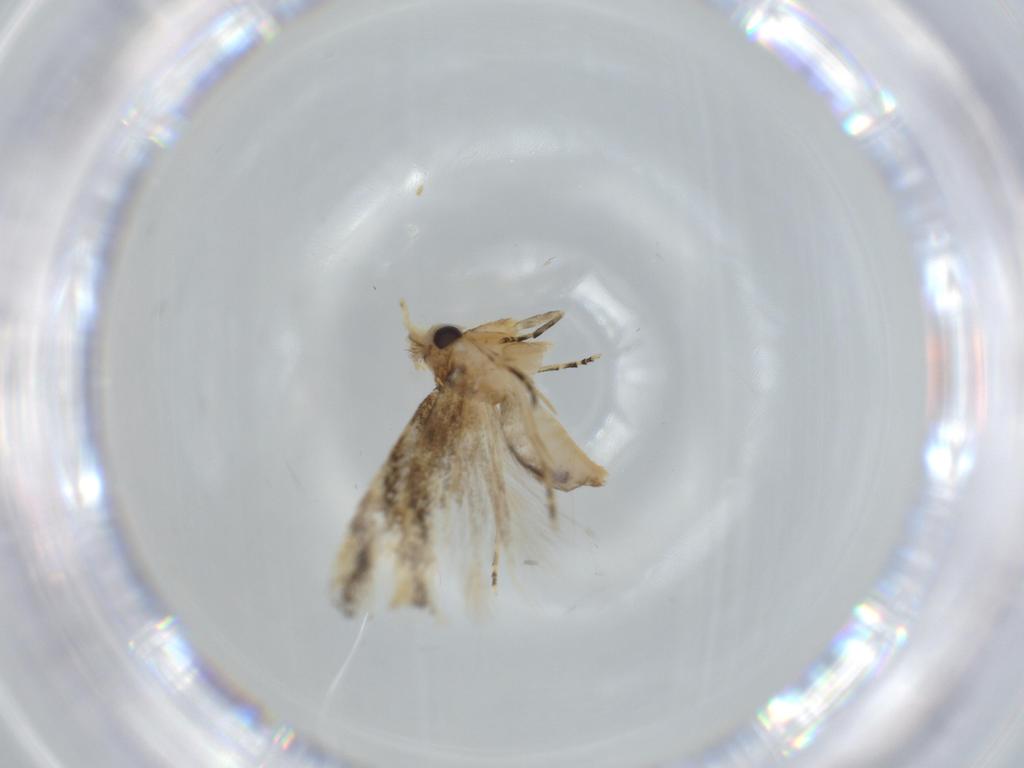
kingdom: Animalia
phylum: Arthropoda
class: Insecta
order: Lepidoptera
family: Bucculatricidae
